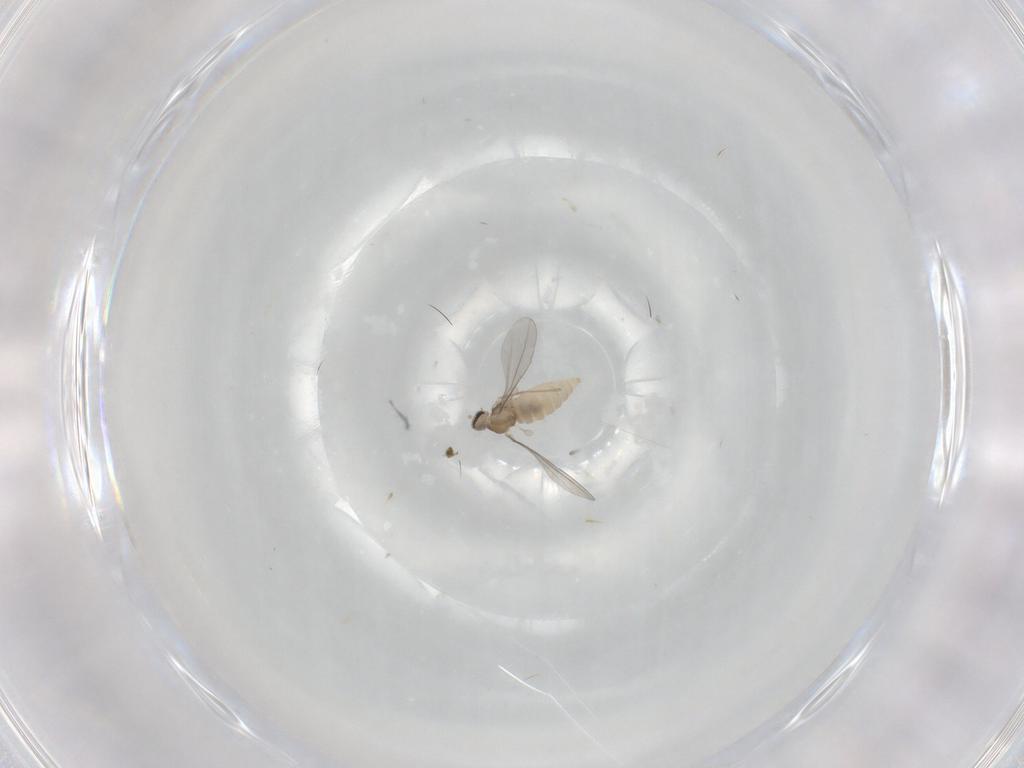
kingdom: Animalia
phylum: Arthropoda
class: Insecta
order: Diptera
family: Cecidomyiidae
